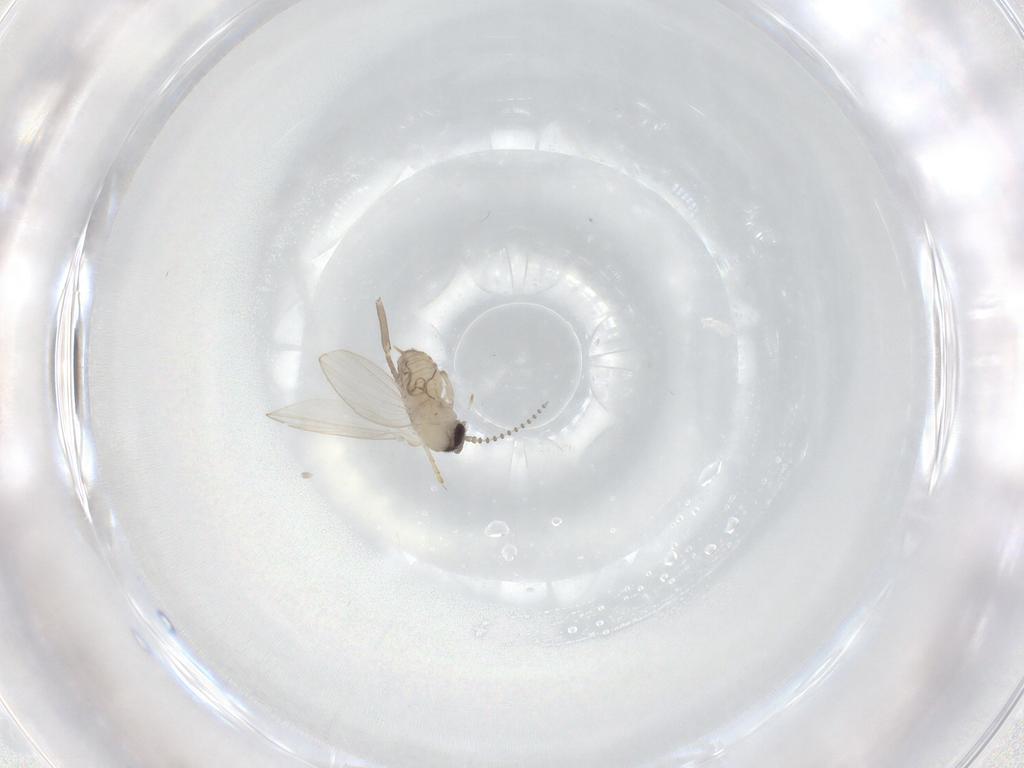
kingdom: Animalia
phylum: Arthropoda
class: Insecta
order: Diptera
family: Psychodidae
